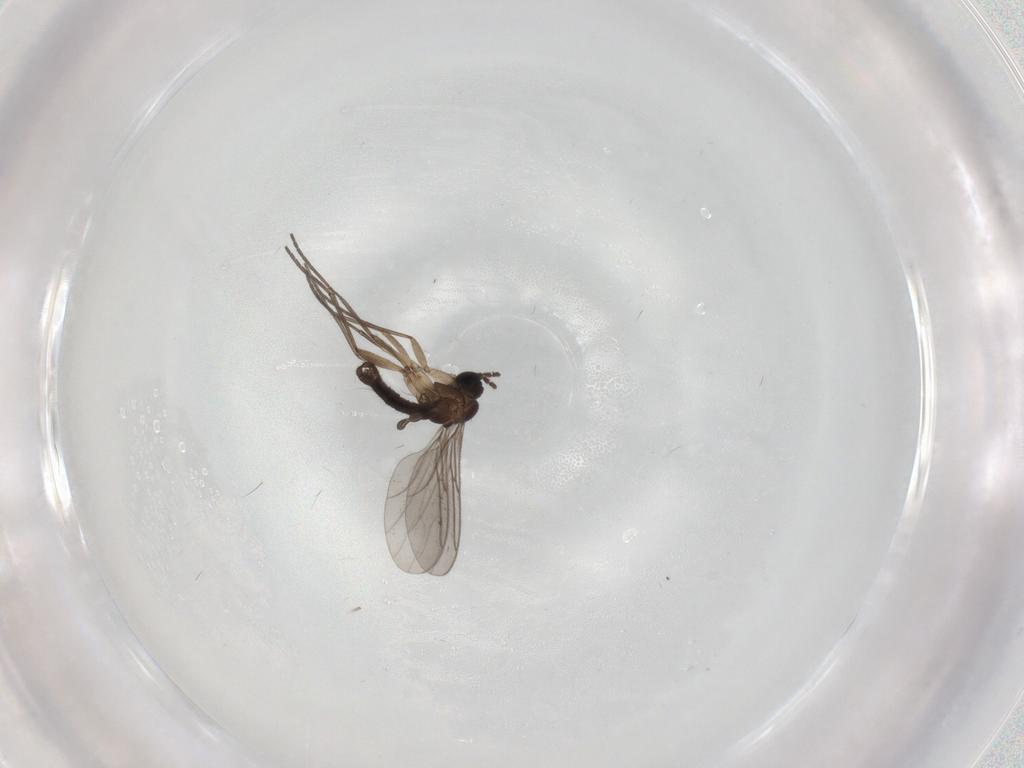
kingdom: Animalia
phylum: Arthropoda
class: Insecta
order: Diptera
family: Sciaridae
